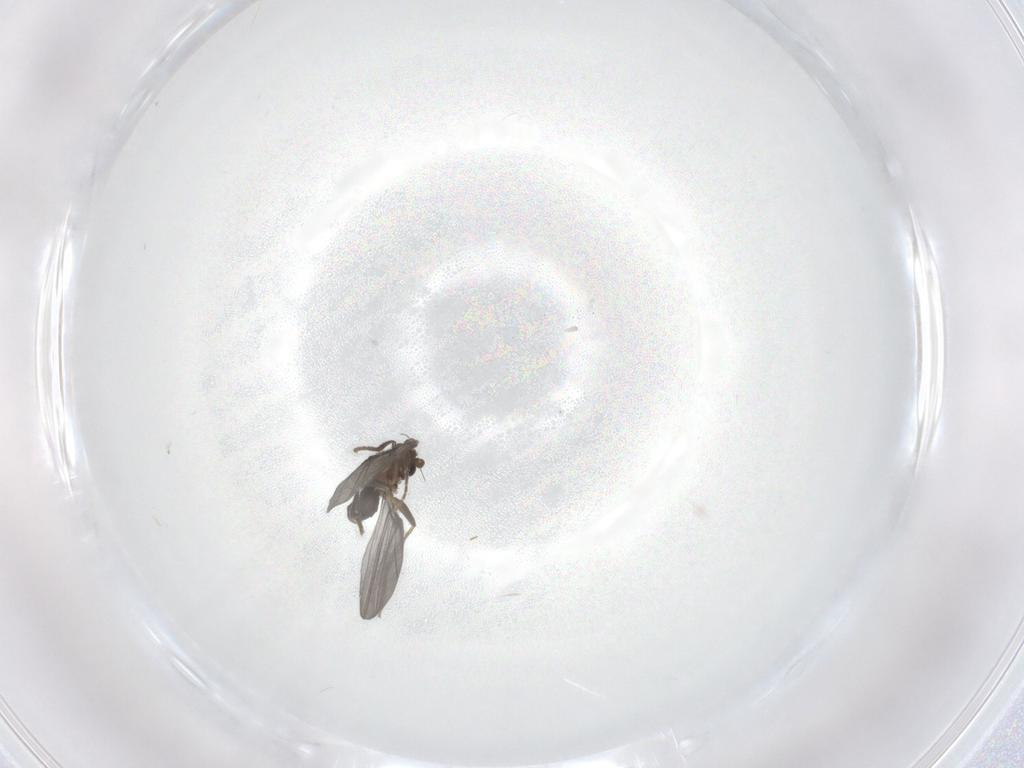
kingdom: Animalia
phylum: Arthropoda
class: Insecta
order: Diptera
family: Phoridae
